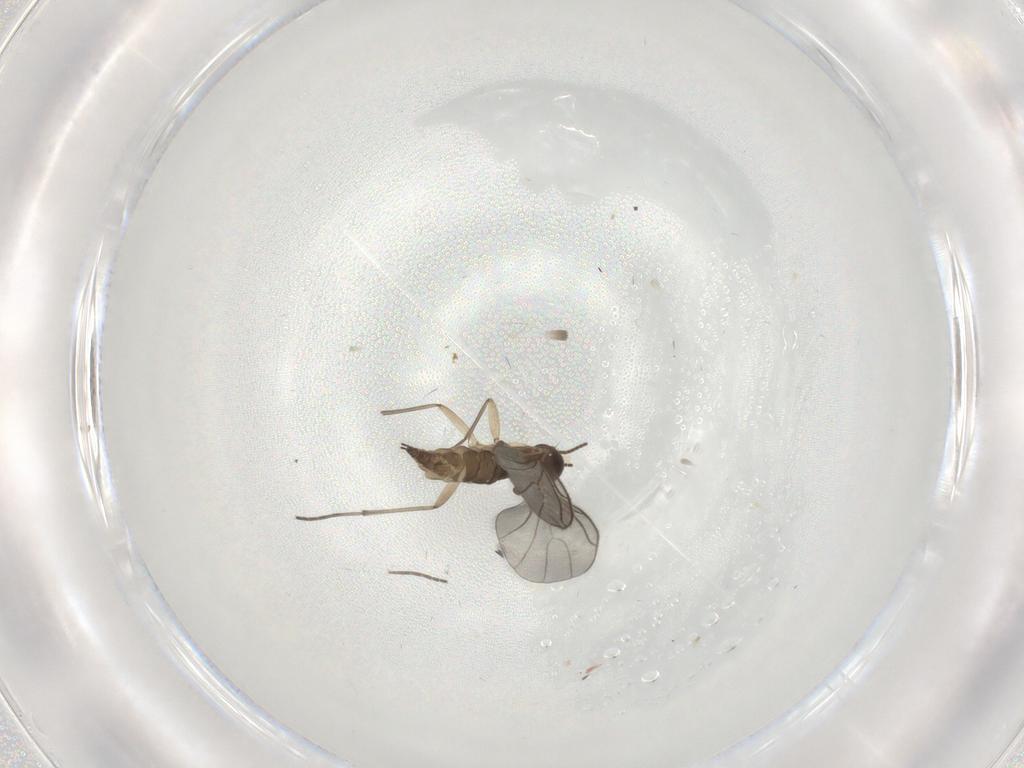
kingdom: Animalia
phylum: Arthropoda
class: Insecta
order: Diptera
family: Sciaridae
